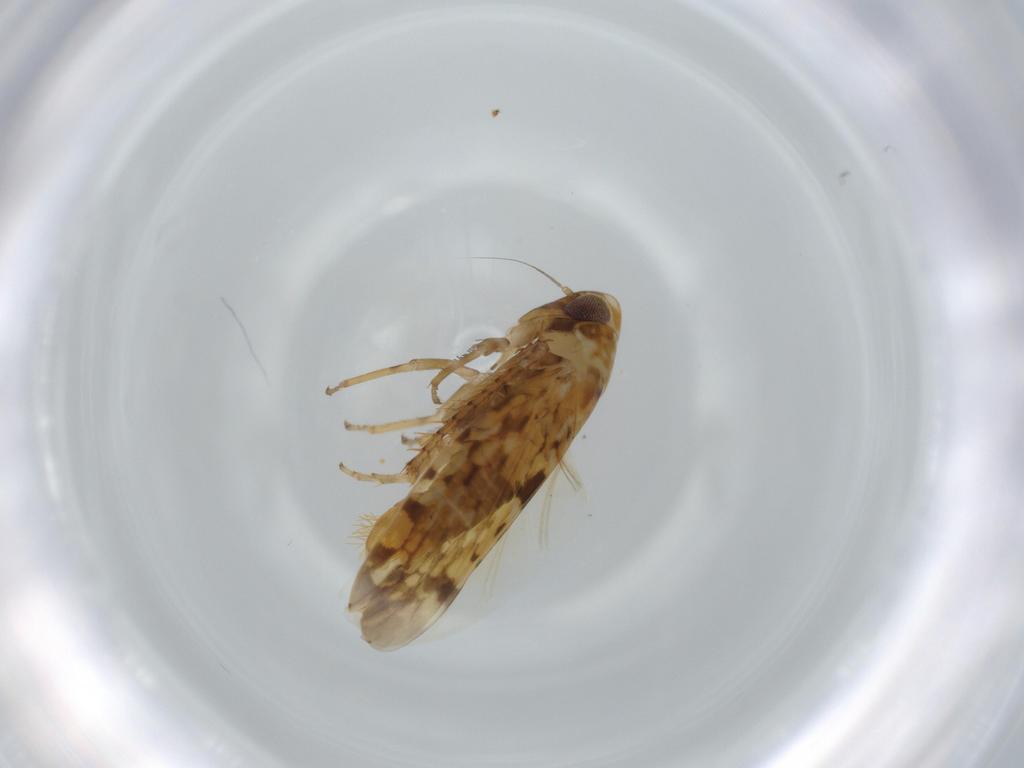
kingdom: Animalia
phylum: Arthropoda
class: Insecta
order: Hemiptera
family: Cicadellidae
